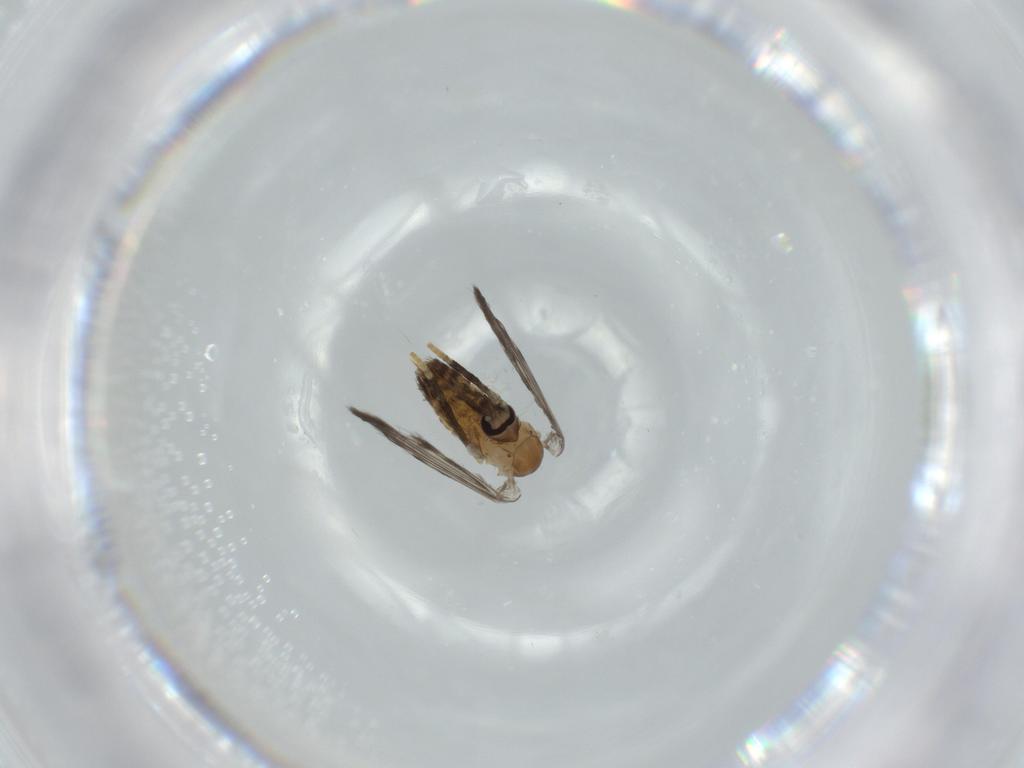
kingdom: Animalia
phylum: Arthropoda
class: Insecta
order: Diptera
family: Psychodidae
